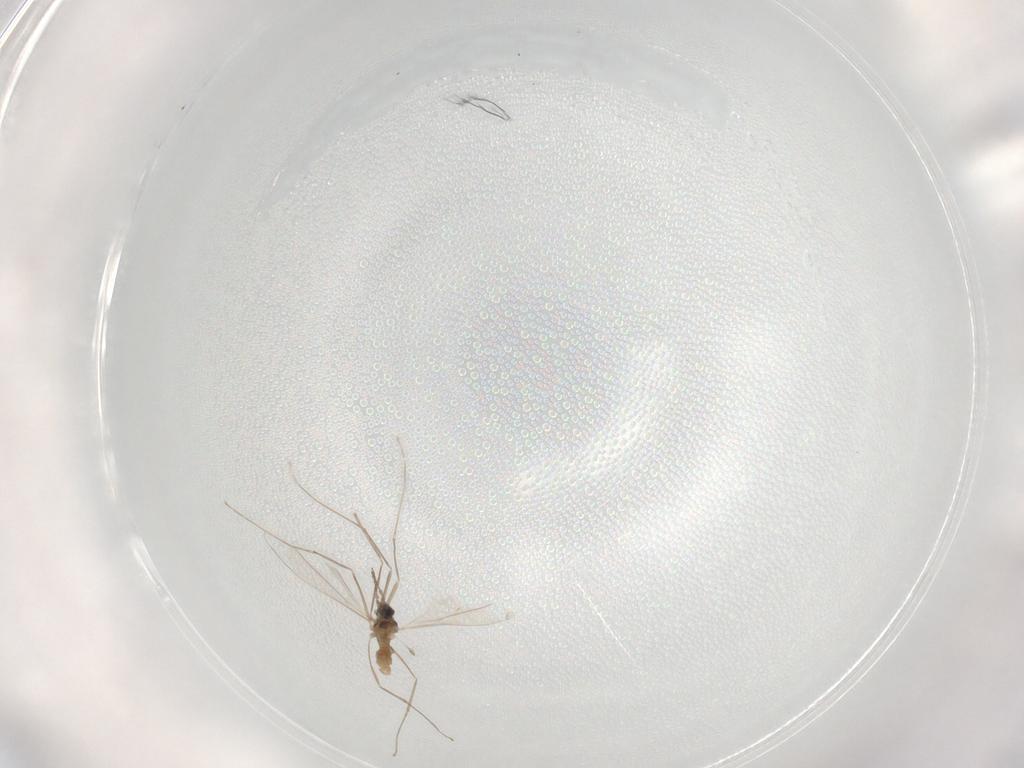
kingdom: Animalia
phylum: Arthropoda
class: Insecta
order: Diptera
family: Cecidomyiidae
